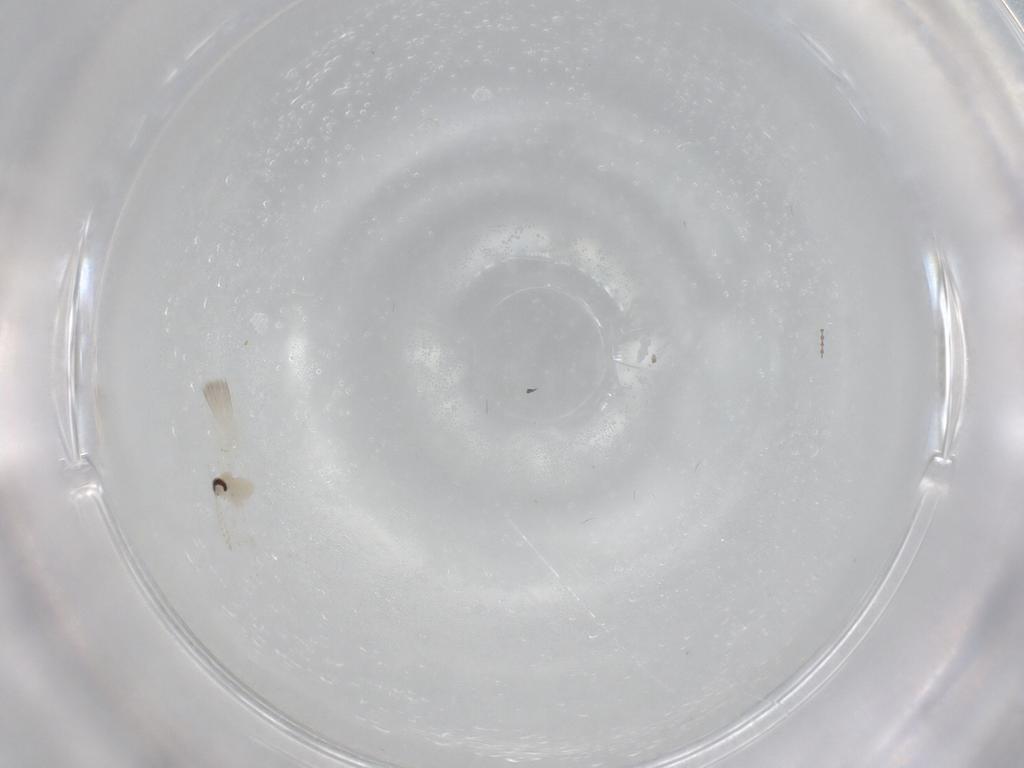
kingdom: Animalia
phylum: Arthropoda
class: Insecta
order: Diptera
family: Cecidomyiidae
